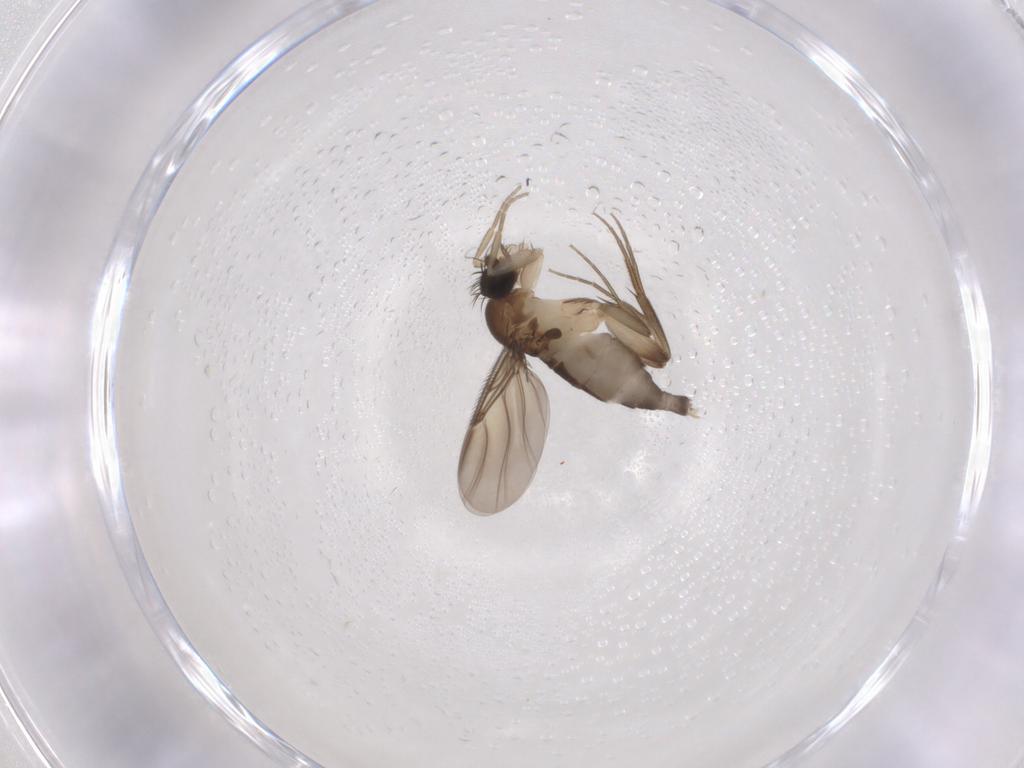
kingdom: Animalia
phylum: Arthropoda
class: Insecta
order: Diptera
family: Phoridae
